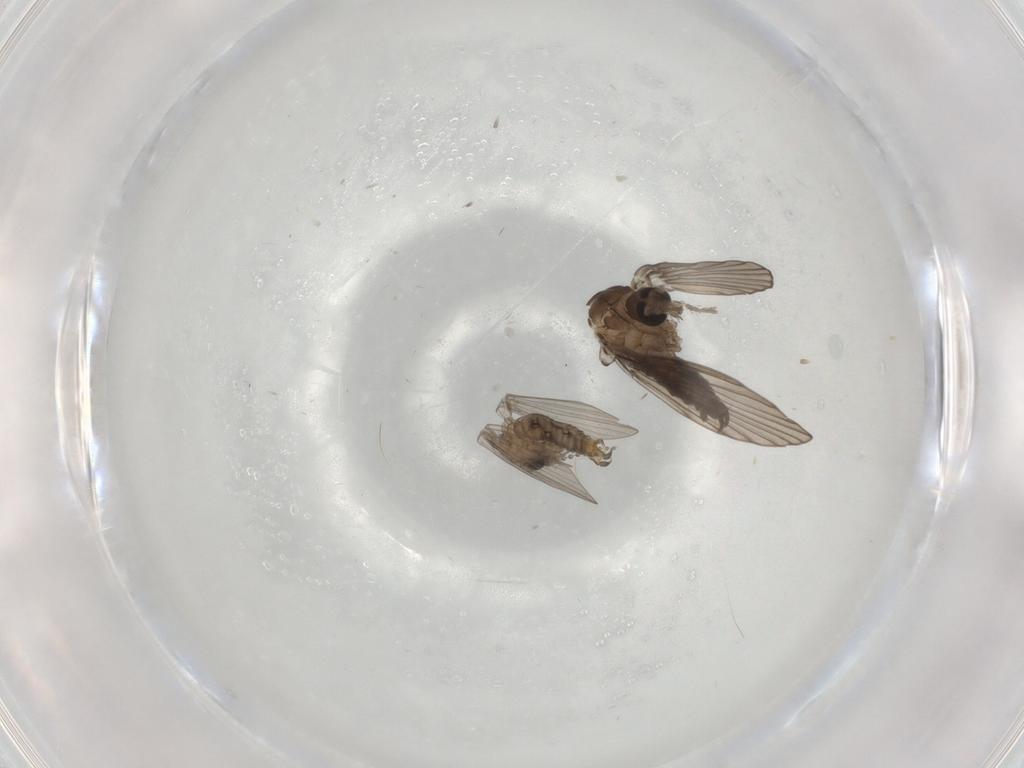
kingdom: Animalia
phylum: Arthropoda
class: Insecta
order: Diptera
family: Psychodidae
